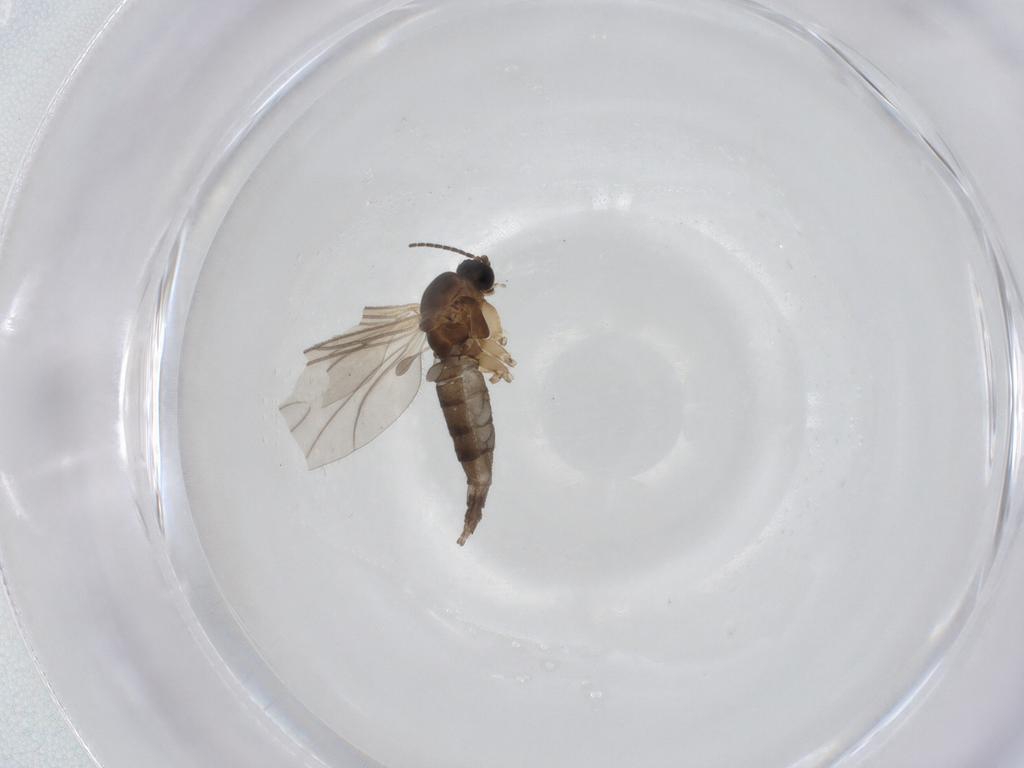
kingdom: Animalia
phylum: Arthropoda
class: Insecta
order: Diptera
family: Sciaridae
